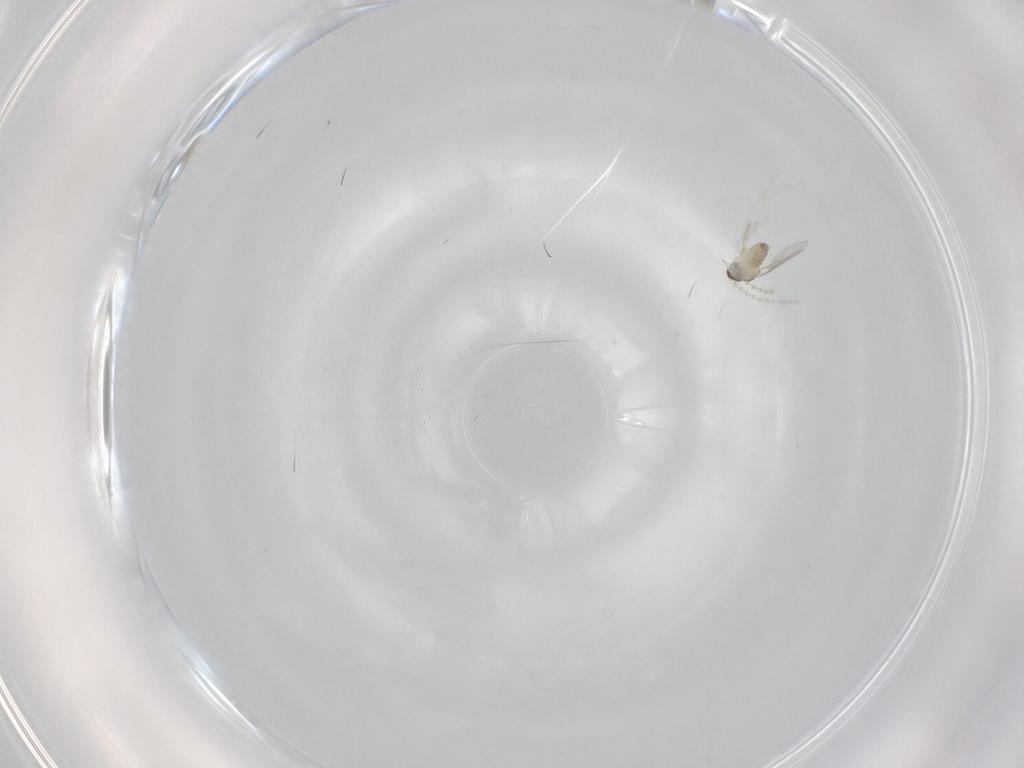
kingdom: Animalia
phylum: Arthropoda
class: Insecta
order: Diptera
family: Cecidomyiidae
